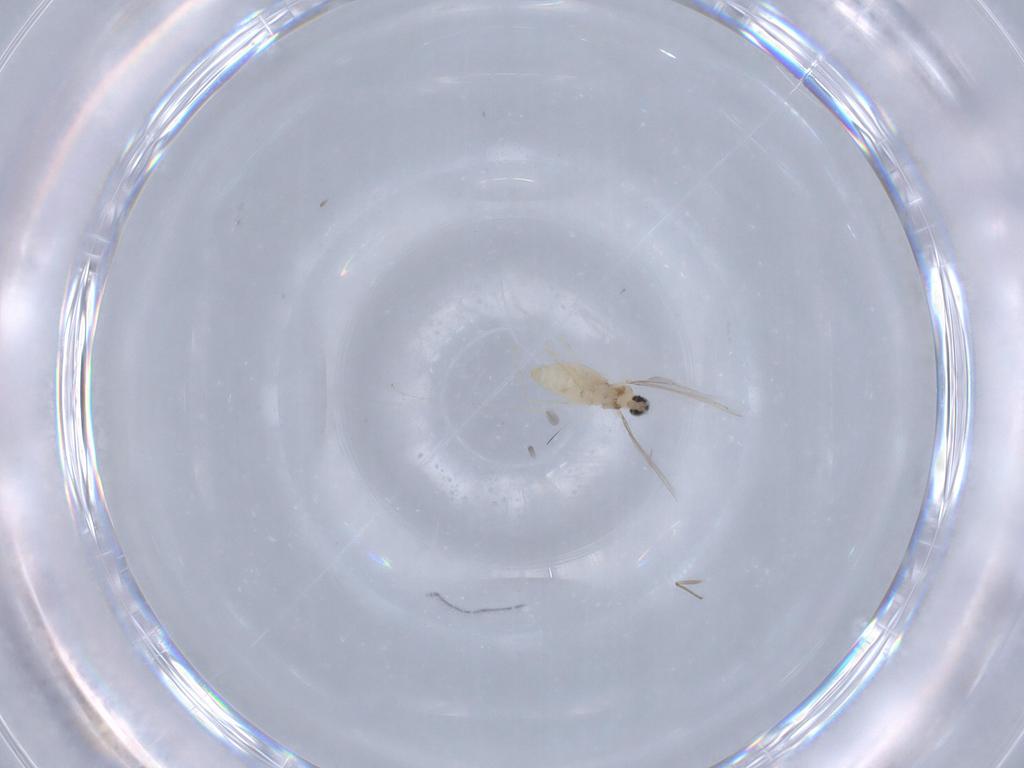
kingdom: Animalia
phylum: Arthropoda
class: Insecta
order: Diptera
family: Cecidomyiidae
